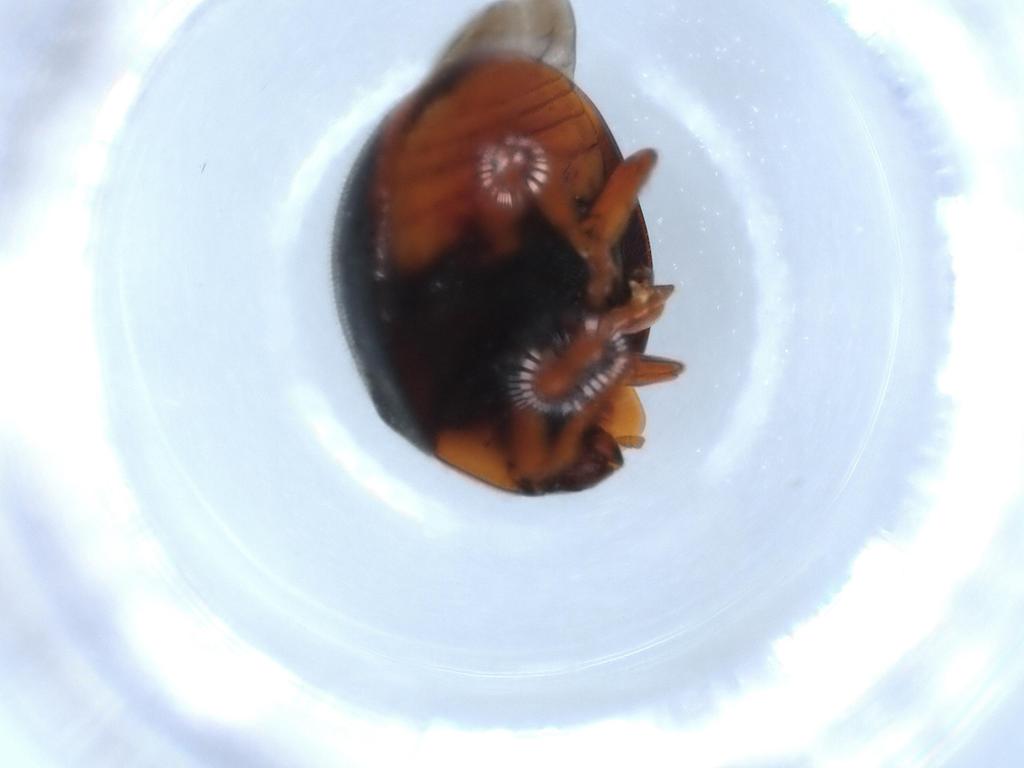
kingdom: Animalia
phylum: Arthropoda
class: Insecta
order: Coleoptera
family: Coccinellidae
